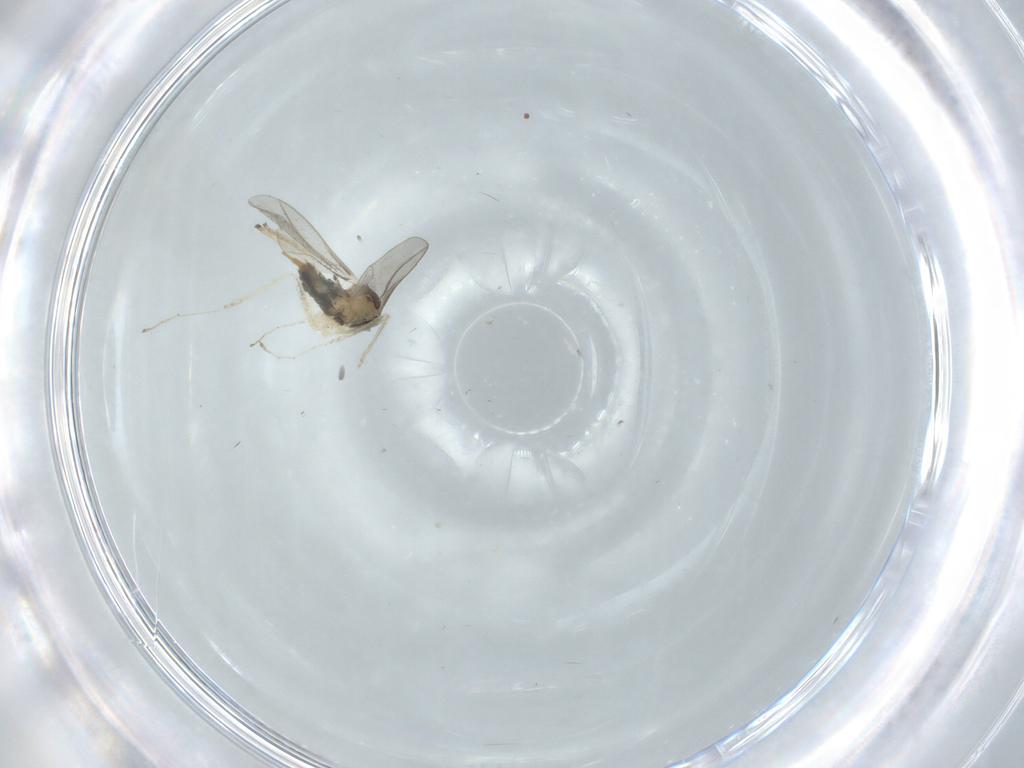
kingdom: Animalia
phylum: Arthropoda
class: Insecta
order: Diptera
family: Cecidomyiidae
